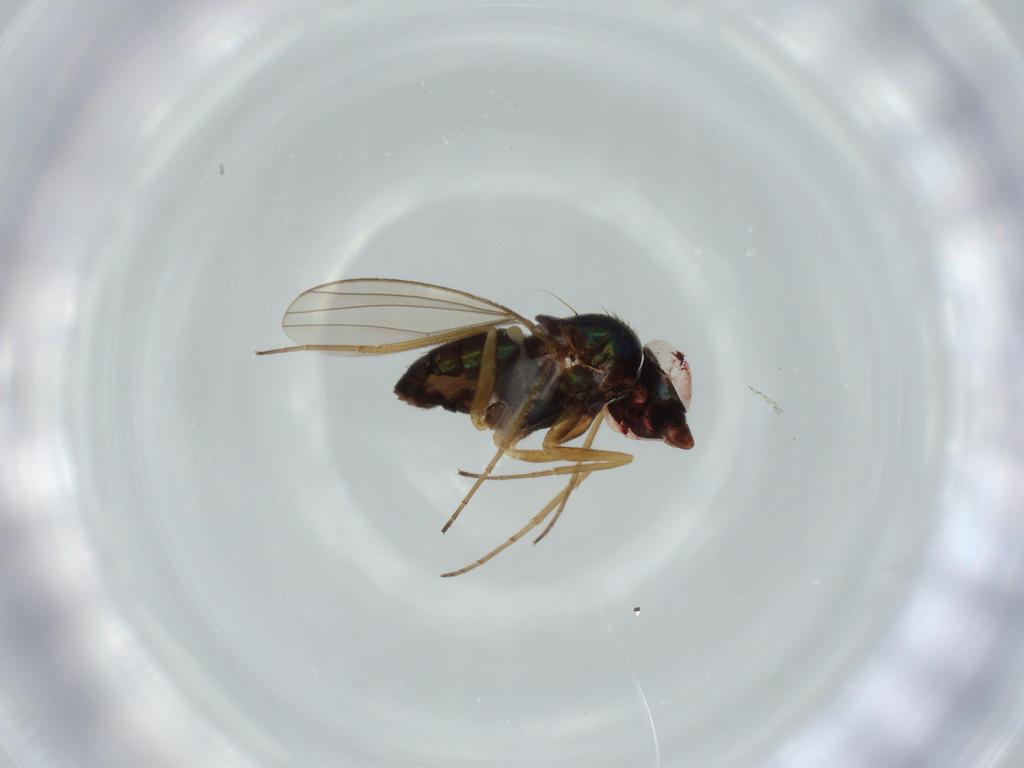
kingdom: Animalia
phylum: Arthropoda
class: Insecta
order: Diptera
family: Dolichopodidae
